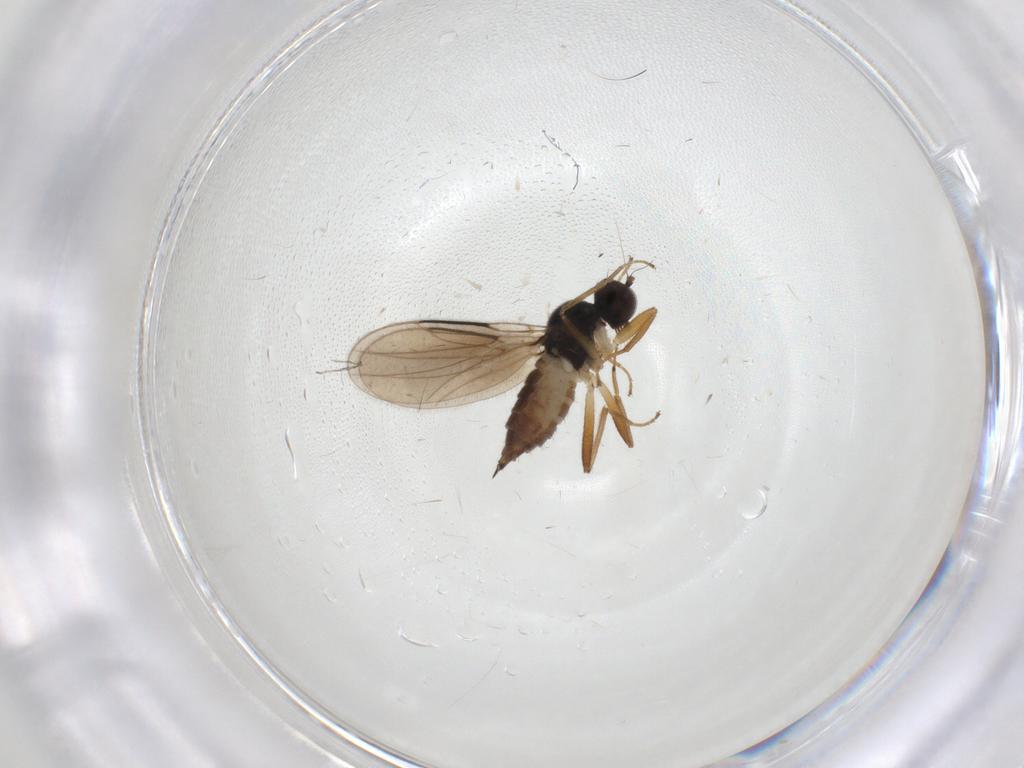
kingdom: Animalia
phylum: Arthropoda
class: Insecta
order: Diptera
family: Hybotidae
